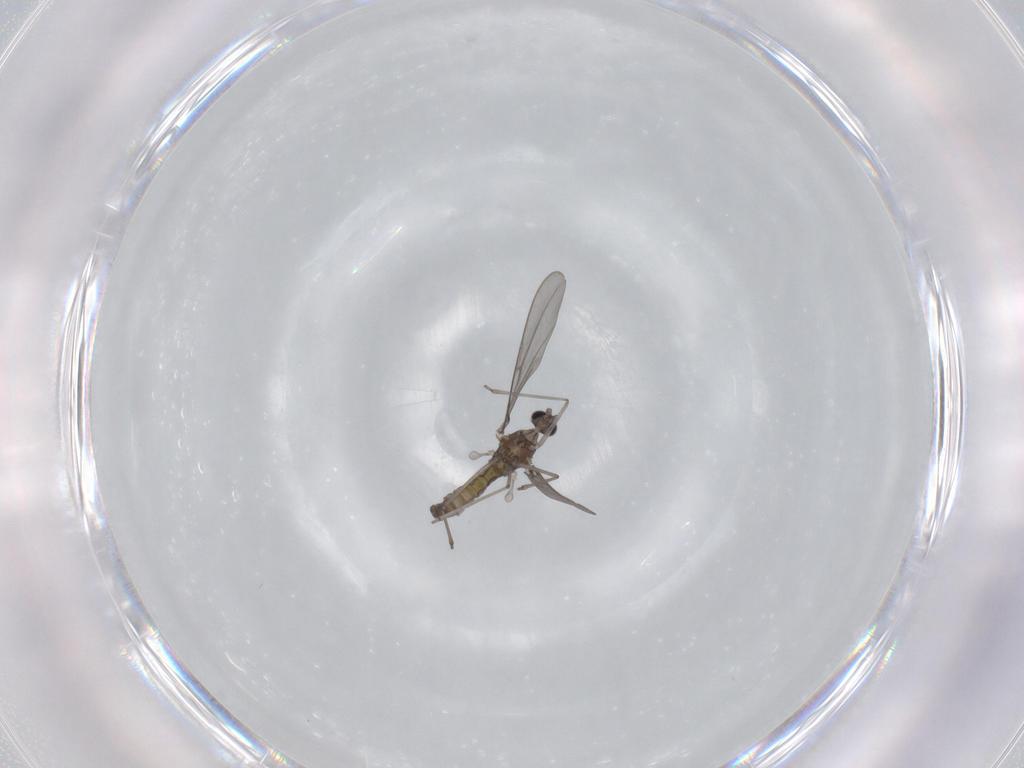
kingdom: Animalia
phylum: Arthropoda
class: Insecta
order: Diptera
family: Cecidomyiidae
